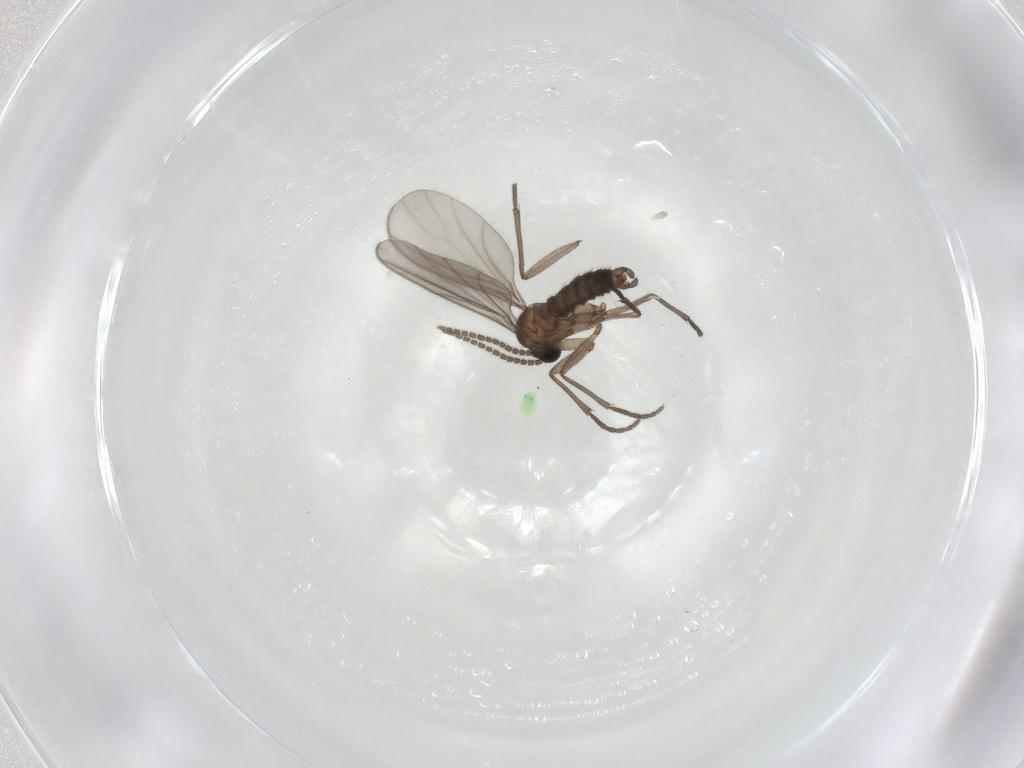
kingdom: Animalia
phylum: Arthropoda
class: Insecta
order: Diptera
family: Sciaridae
